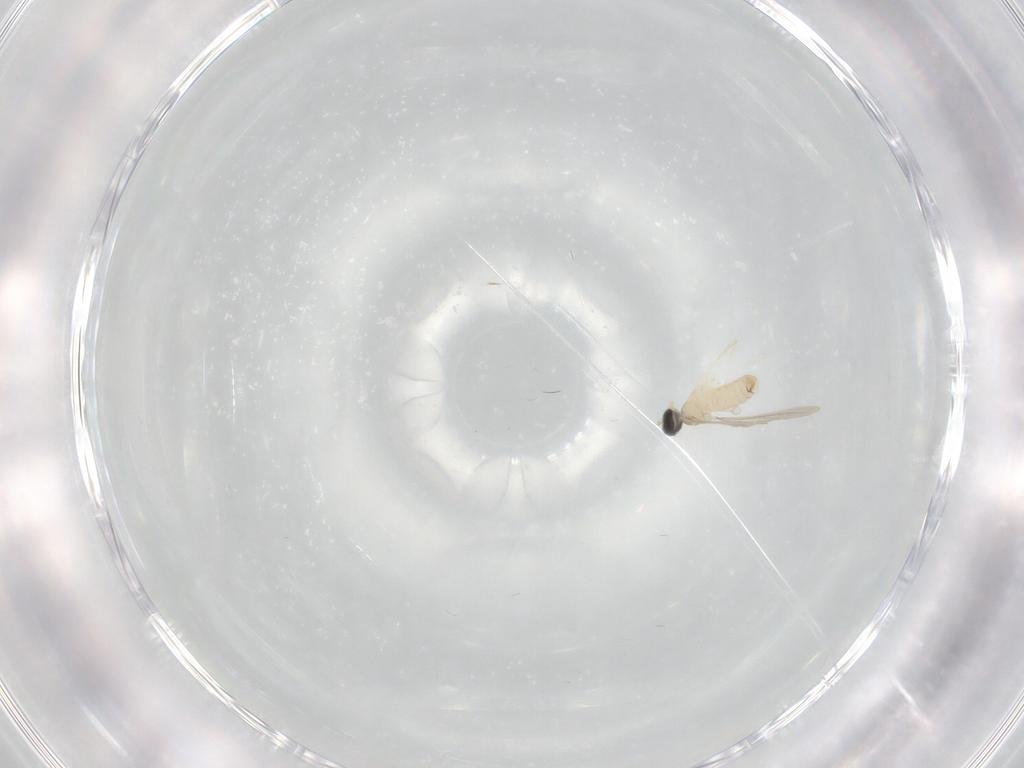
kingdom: Animalia
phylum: Arthropoda
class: Insecta
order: Diptera
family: Cecidomyiidae
